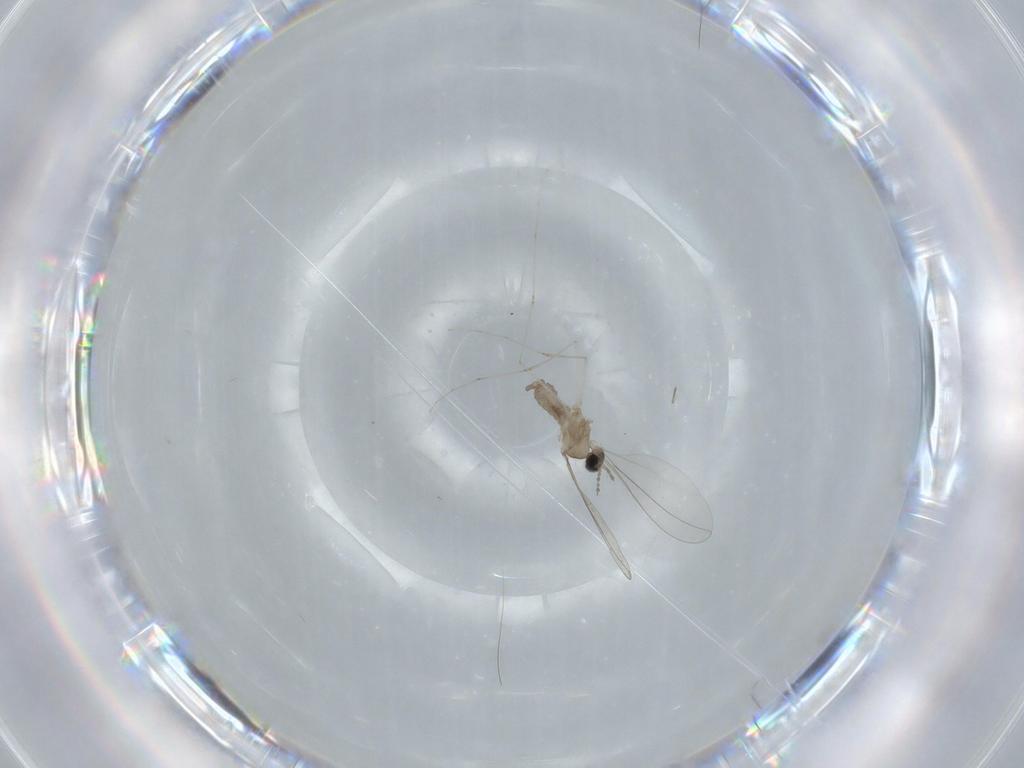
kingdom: Animalia
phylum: Arthropoda
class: Insecta
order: Diptera
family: Cecidomyiidae
